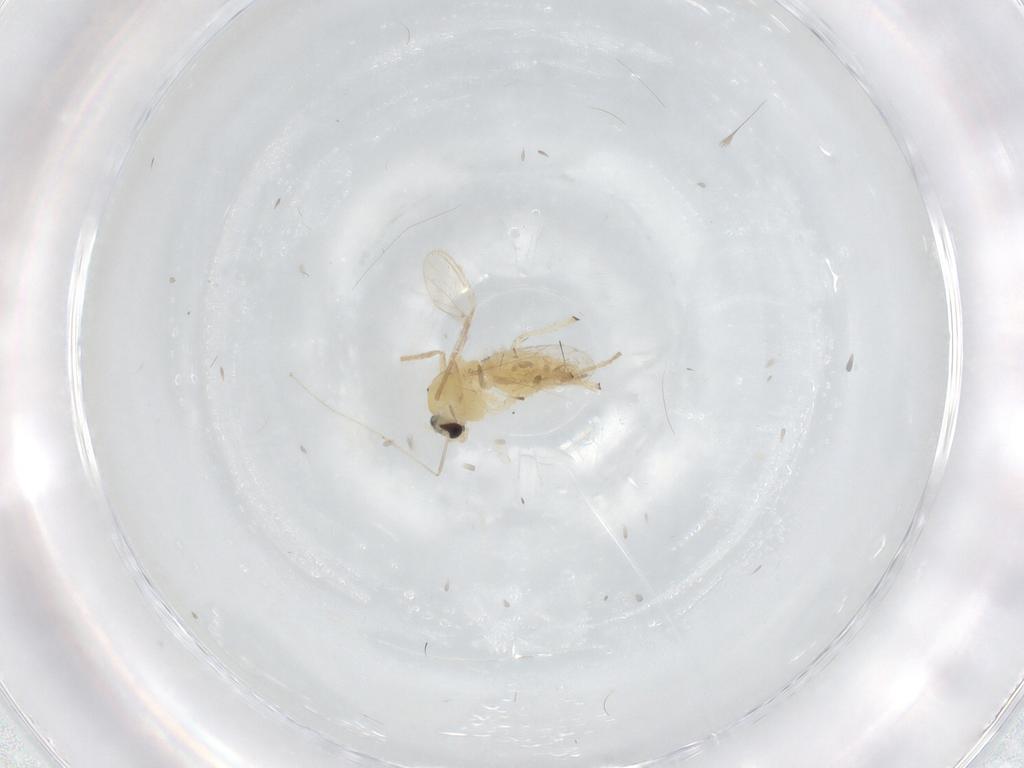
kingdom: Animalia
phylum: Arthropoda
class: Insecta
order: Diptera
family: Chironomidae
